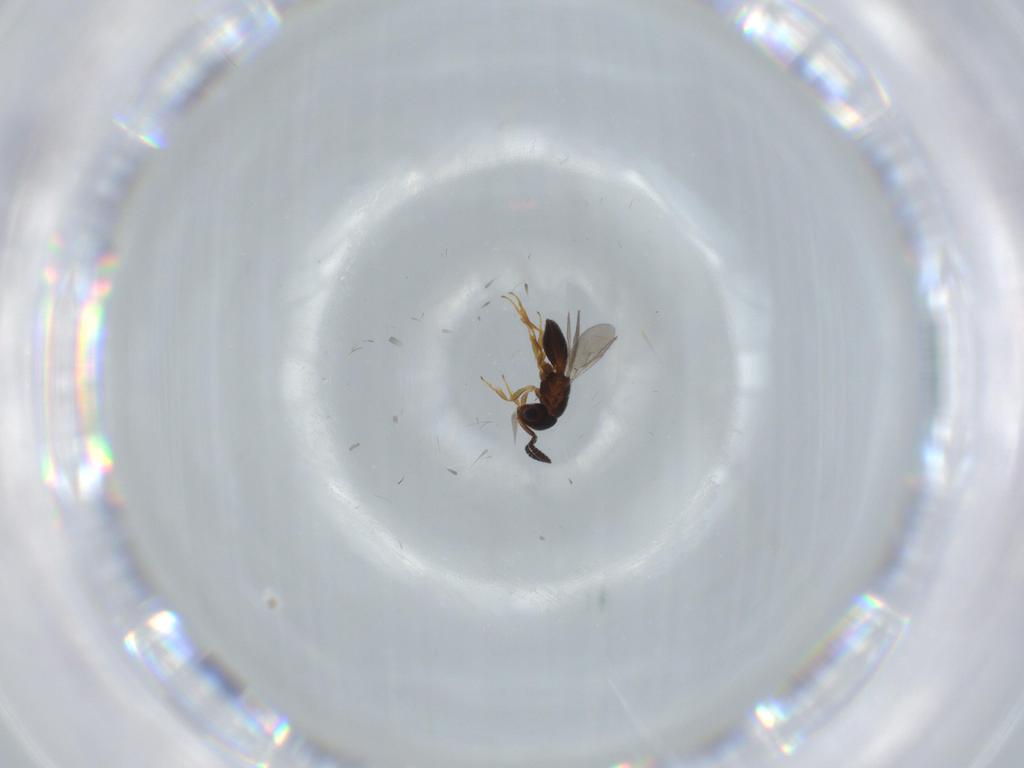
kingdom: Animalia
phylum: Arthropoda
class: Insecta
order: Hymenoptera
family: Scelionidae
